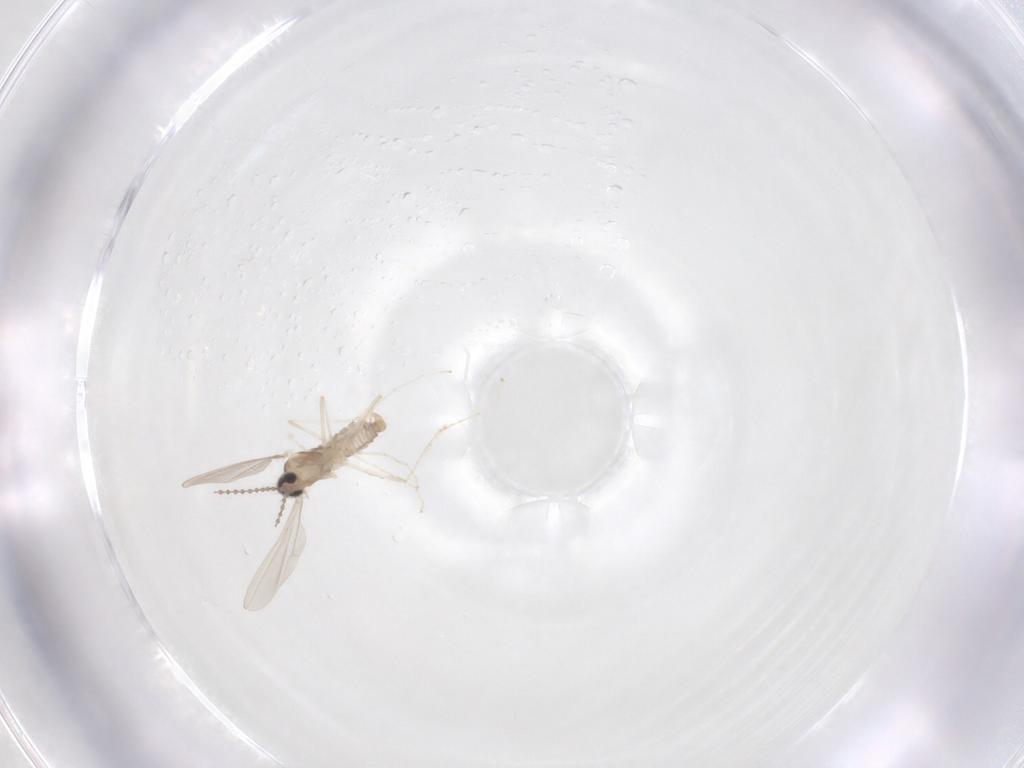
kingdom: Animalia
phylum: Arthropoda
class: Insecta
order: Diptera
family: Cecidomyiidae
